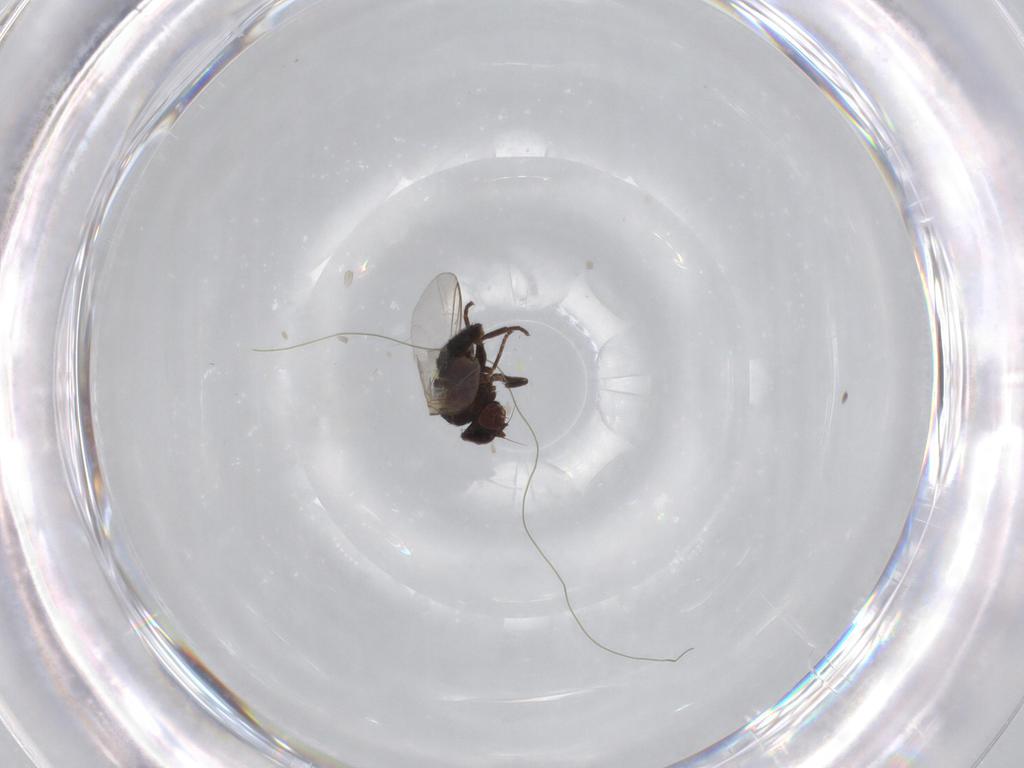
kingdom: Animalia
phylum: Arthropoda
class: Insecta
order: Diptera
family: Agromyzidae
